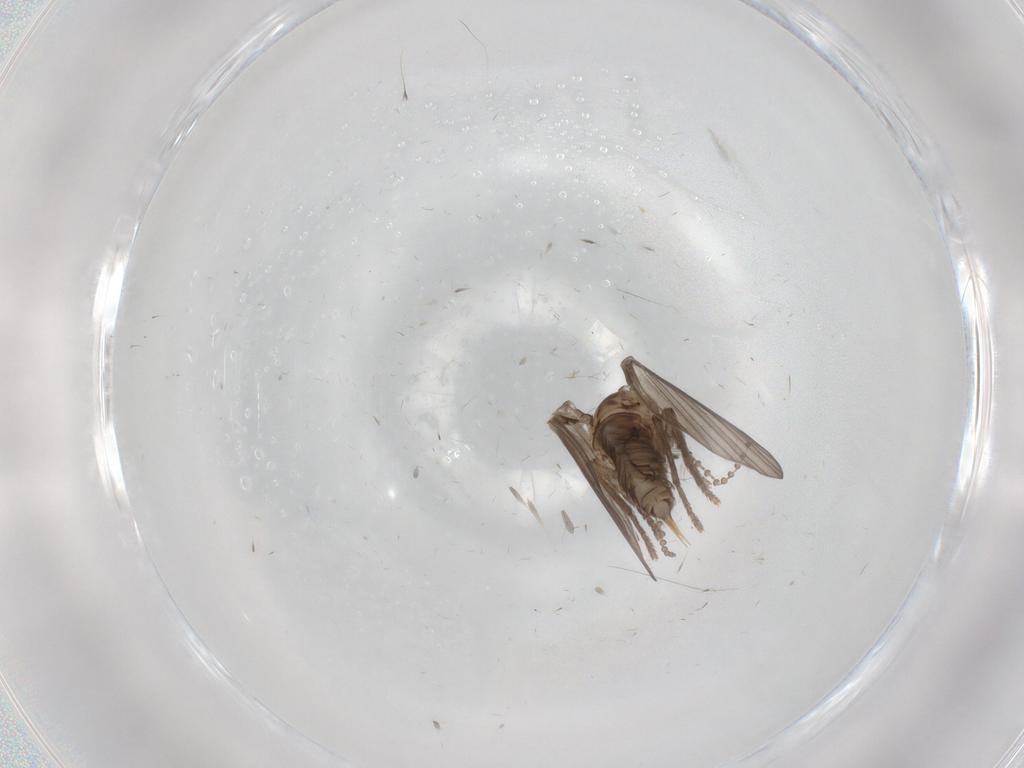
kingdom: Animalia
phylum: Arthropoda
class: Insecta
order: Diptera
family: Psychodidae
